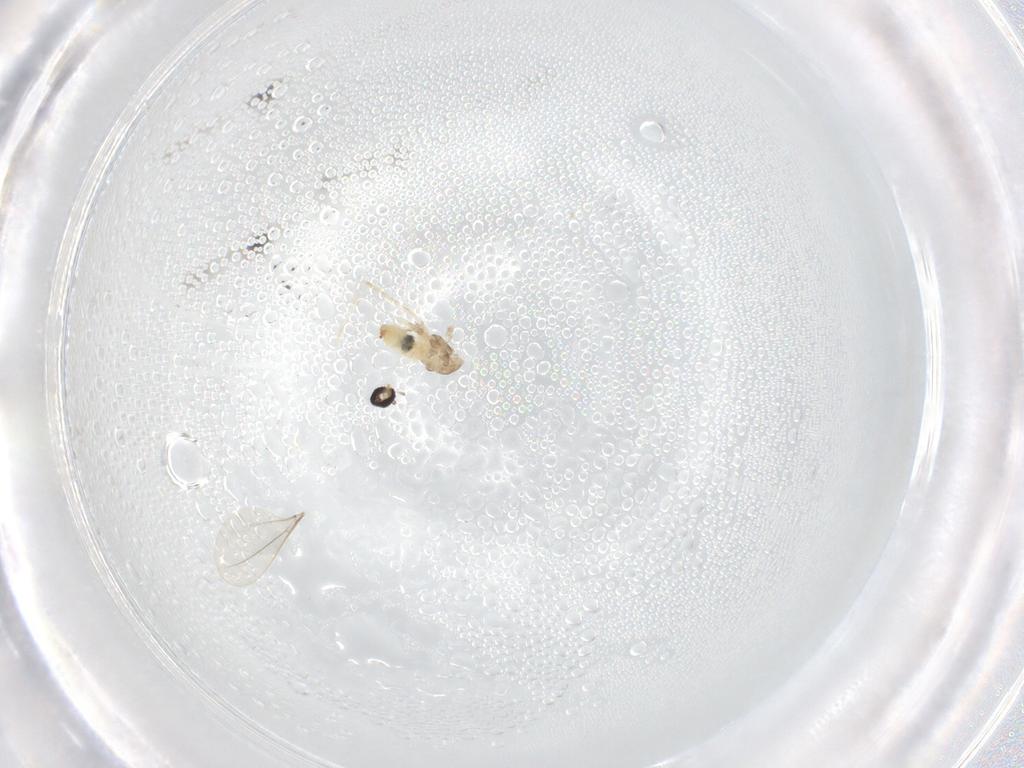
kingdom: Animalia
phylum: Arthropoda
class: Insecta
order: Diptera
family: Cecidomyiidae
